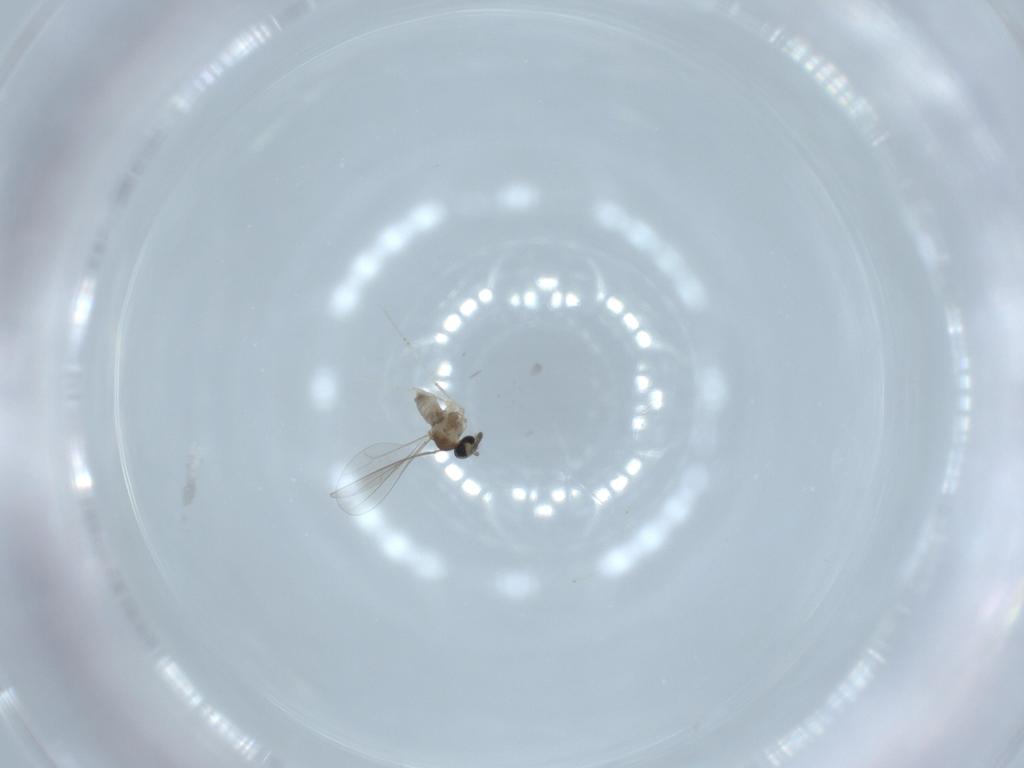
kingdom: Animalia
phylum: Arthropoda
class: Insecta
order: Diptera
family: Cecidomyiidae
